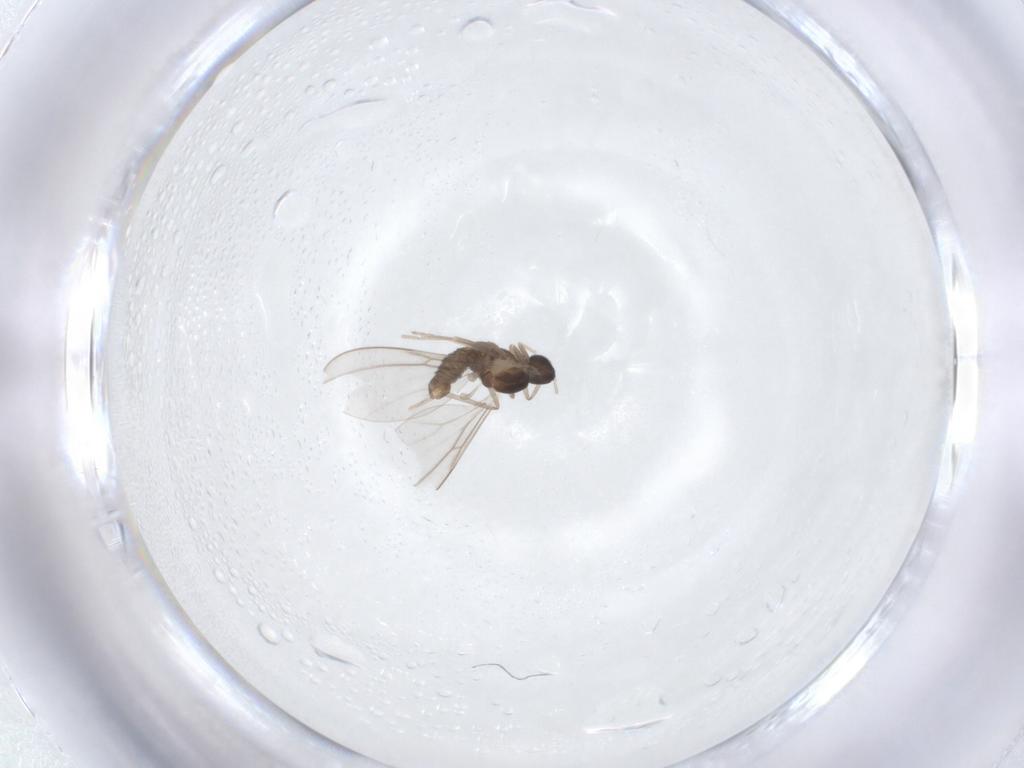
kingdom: Animalia
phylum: Arthropoda
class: Insecta
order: Diptera
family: Cecidomyiidae
